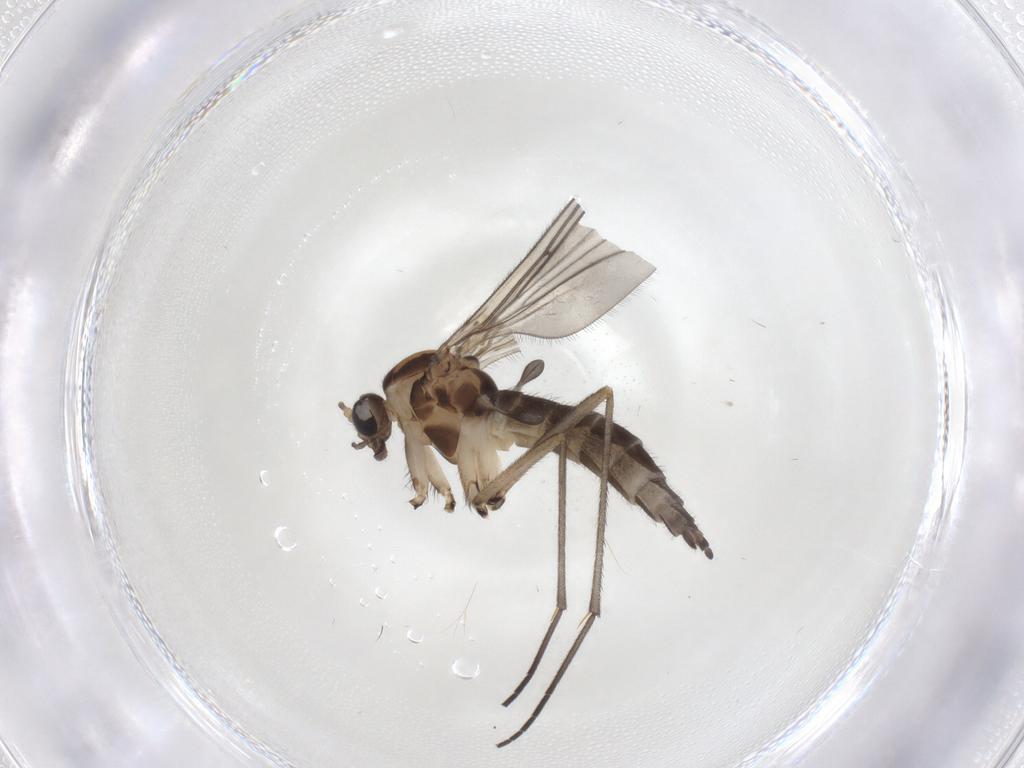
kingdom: Animalia
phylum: Arthropoda
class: Insecta
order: Diptera
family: Sciaridae
